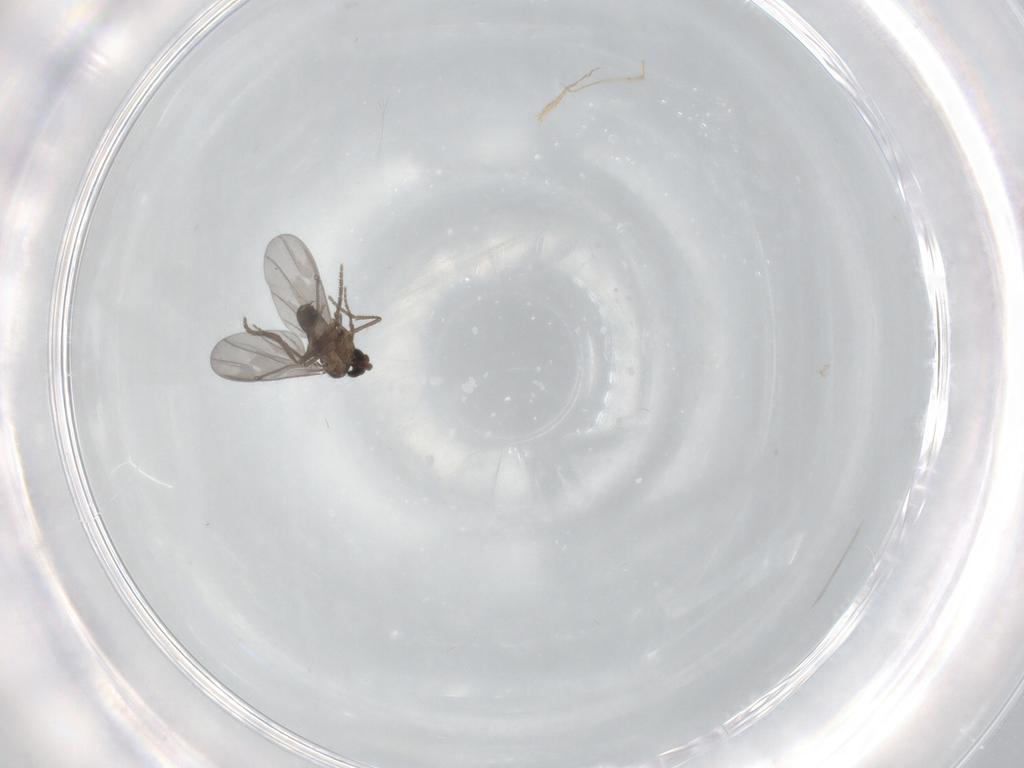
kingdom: Animalia
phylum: Arthropoda
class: Insecta
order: Diptera
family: Phoridae
